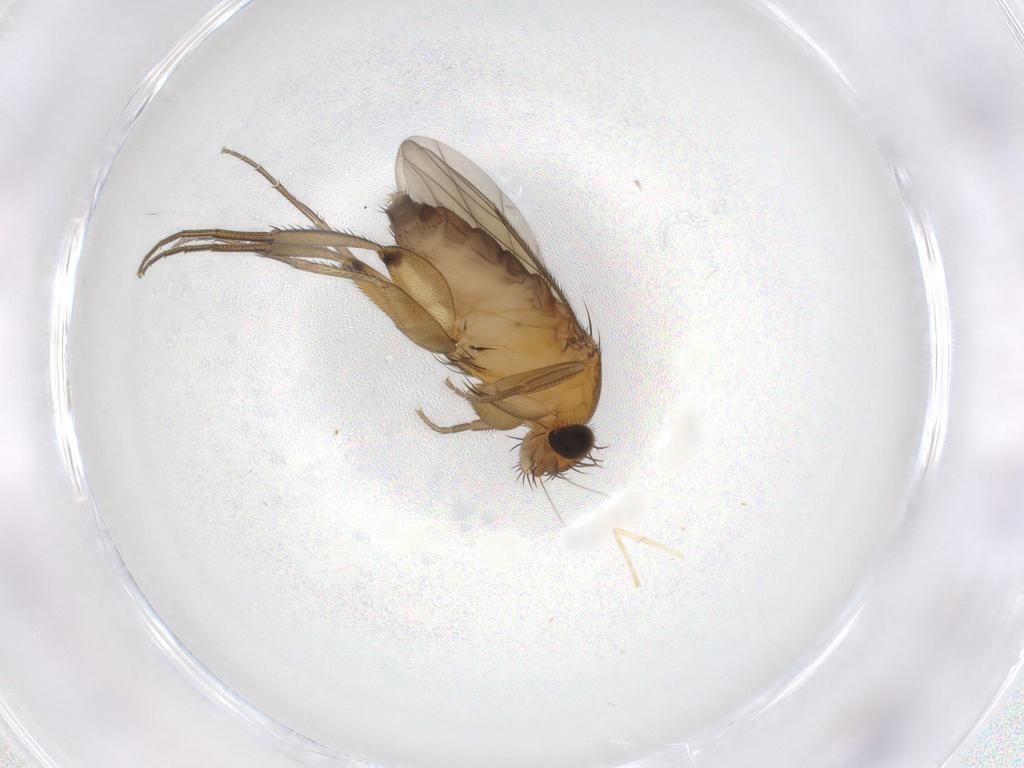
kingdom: Animalia
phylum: Arthropoda
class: Insecta
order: Diptera
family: Phoridae
